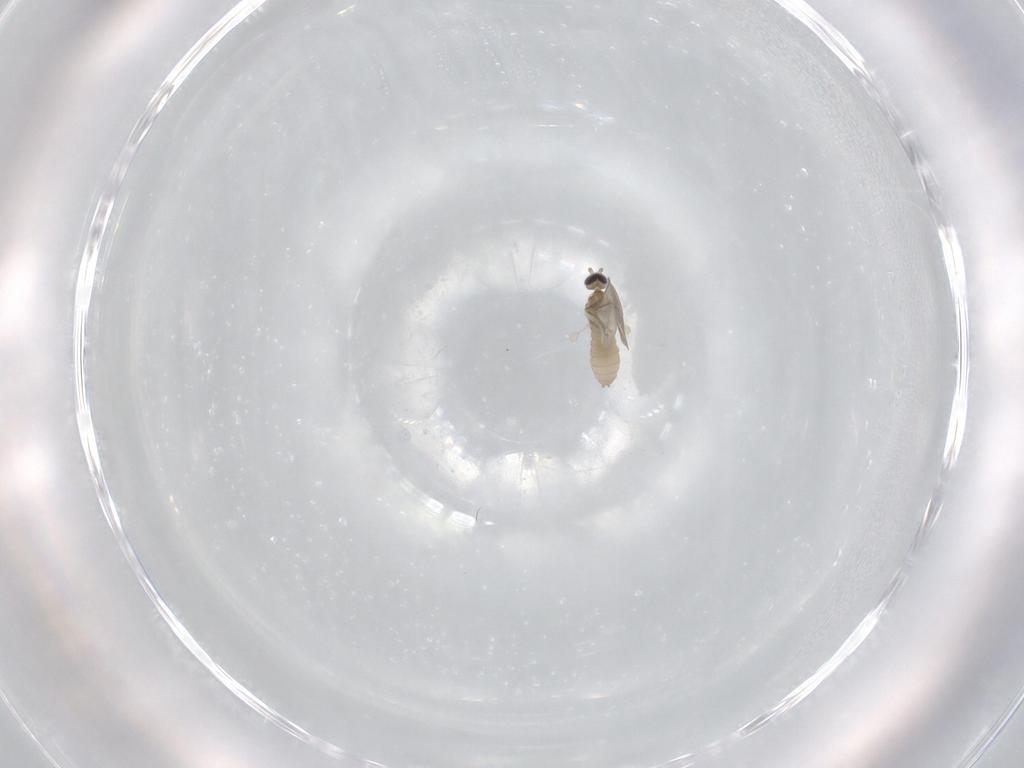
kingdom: Animalia
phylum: Arthropoda
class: Insecta
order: Diptera
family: Cecidomyiidae
